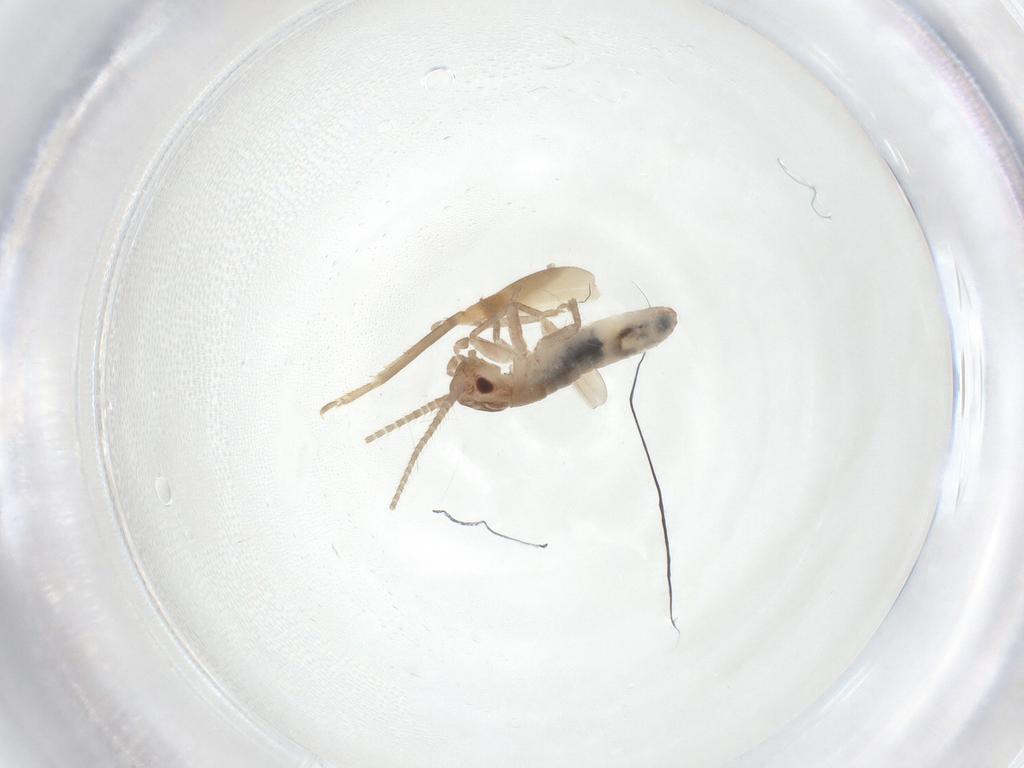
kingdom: Animalia
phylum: Arthropoda
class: Insecta
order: Orthoptera
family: Mogoplistidae
